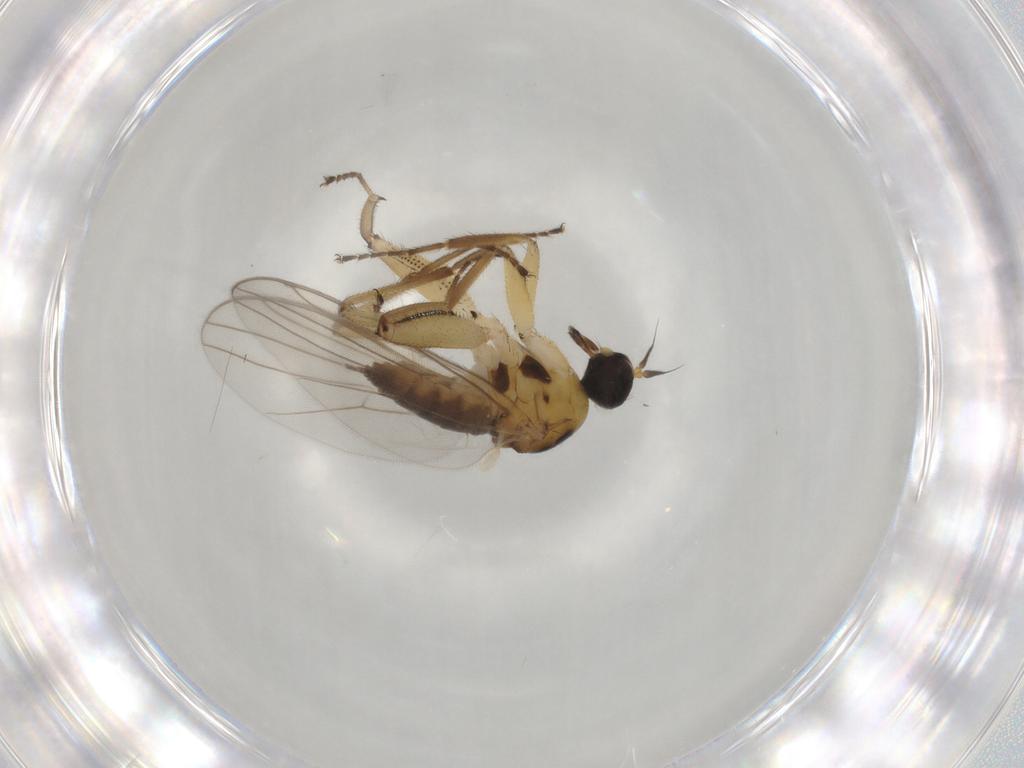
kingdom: Animalia
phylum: Arthropoda
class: Insecta
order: Diptera
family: Hybotidae
